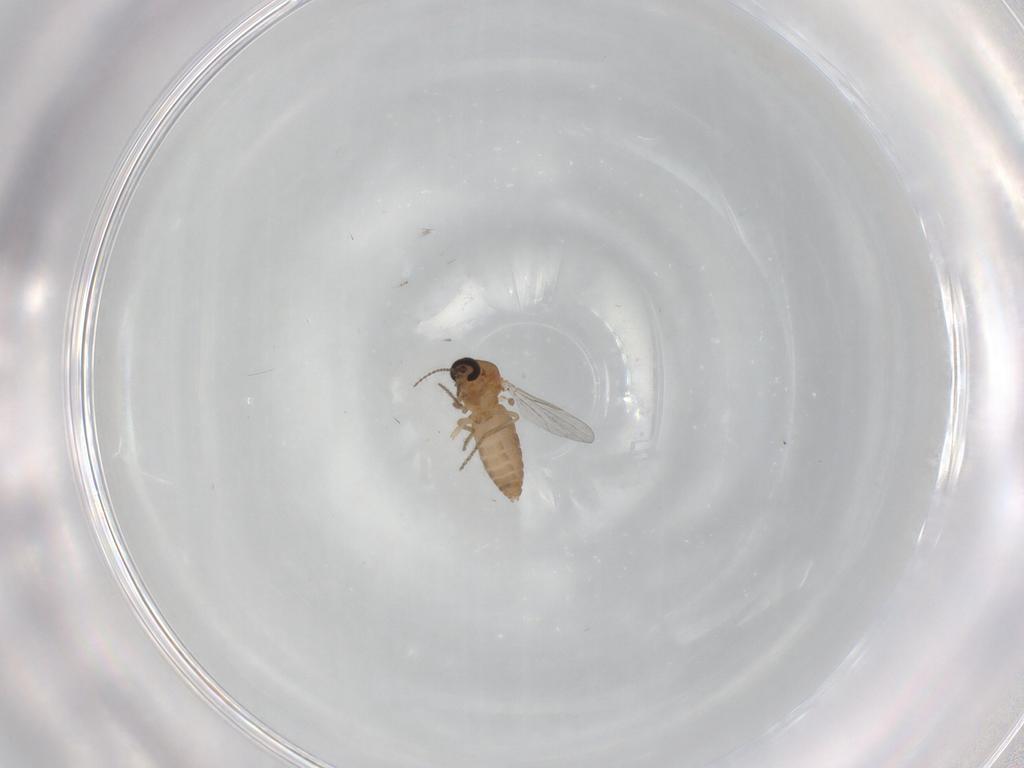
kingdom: Animalia
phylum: Arthropoda
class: Insecta
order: Diptera
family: Ceratopogonidae
